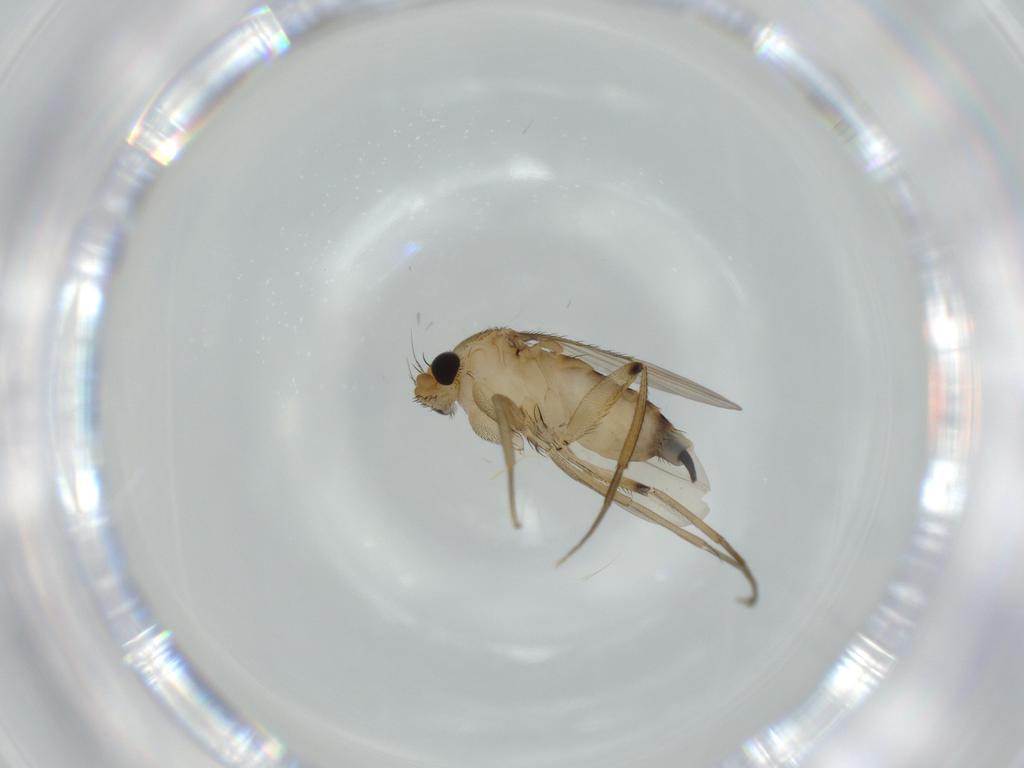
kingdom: Animalia
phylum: Arthropoda
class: Insecta
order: Diptera
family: Phoridae
